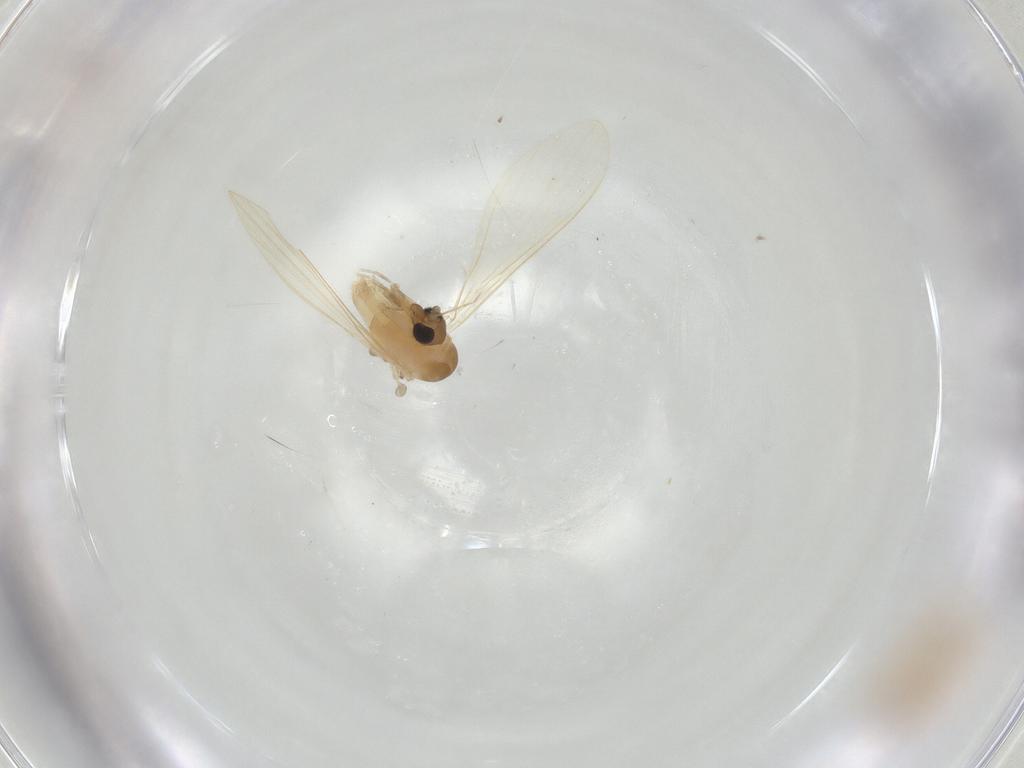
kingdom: Animalia
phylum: Arthropoda
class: Insecta
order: Diptera
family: Anthomyiidae
